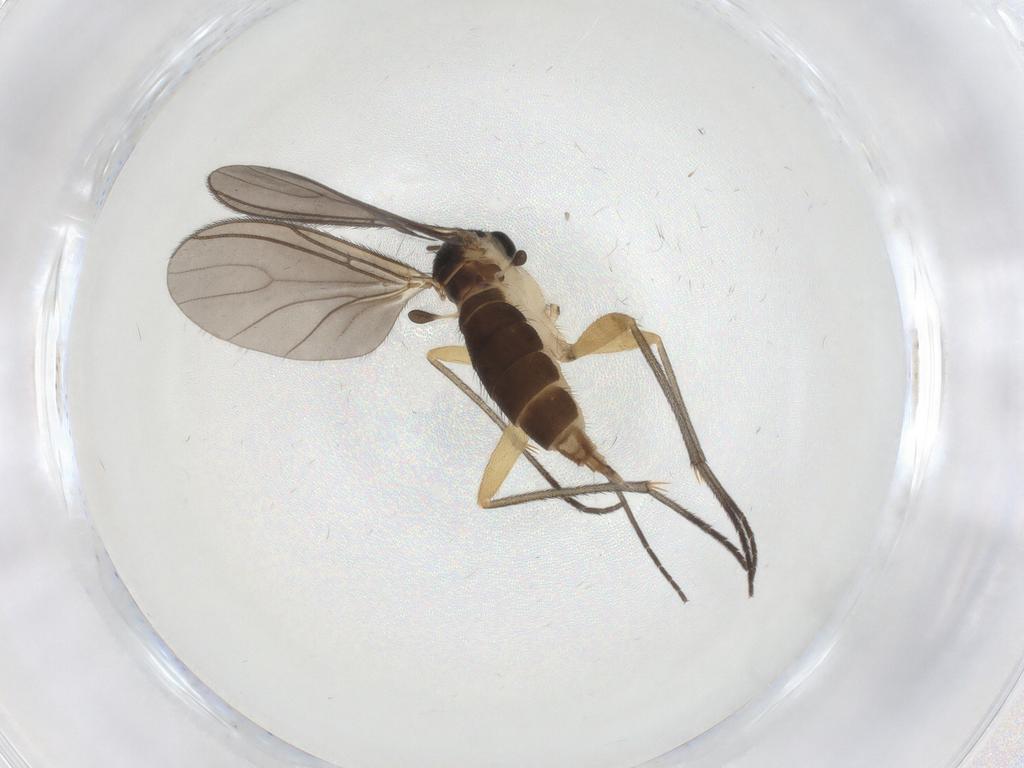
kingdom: Animalia
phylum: Arthropoda
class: Insecta
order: Diptera
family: Sciaridae
